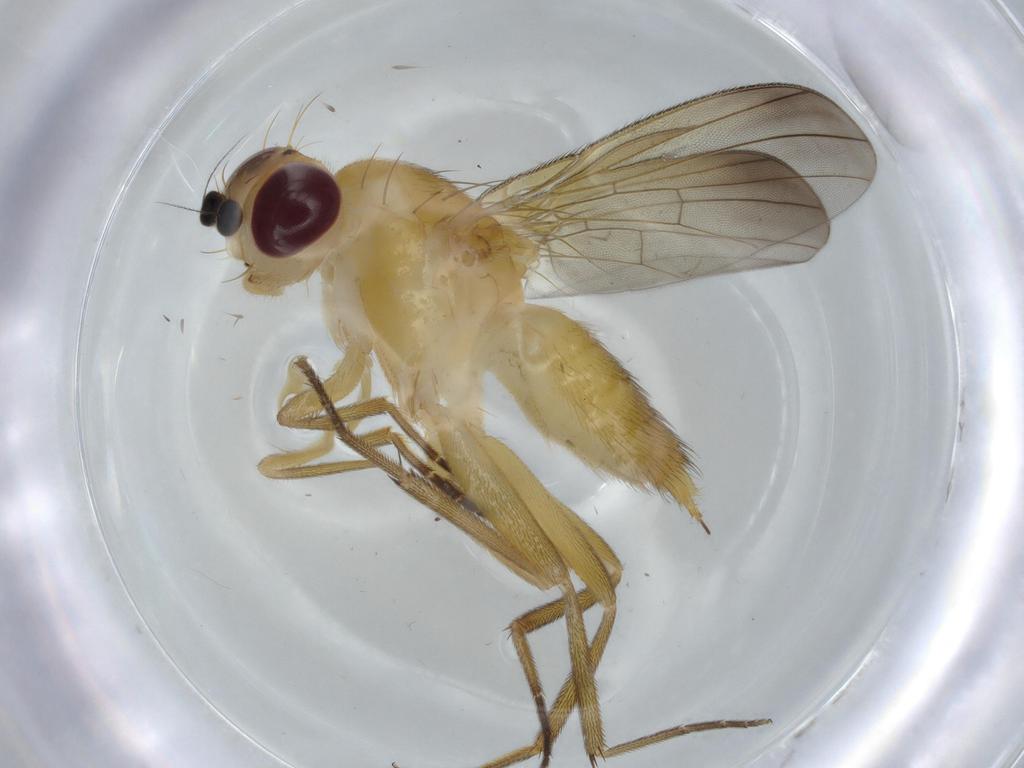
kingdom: Animalia
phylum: Arthropoda
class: Insecta
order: Diptera
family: Clusiidae
